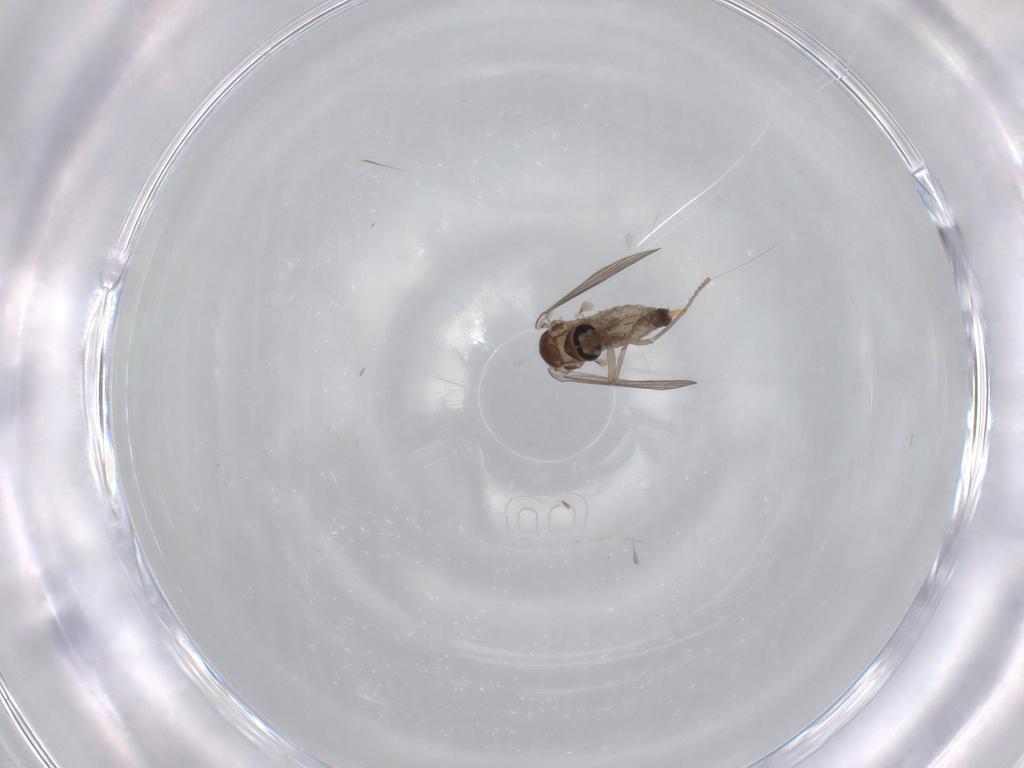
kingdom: Animalia
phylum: Arthropoda
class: Insecta
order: Diptera
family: Psychodidae
